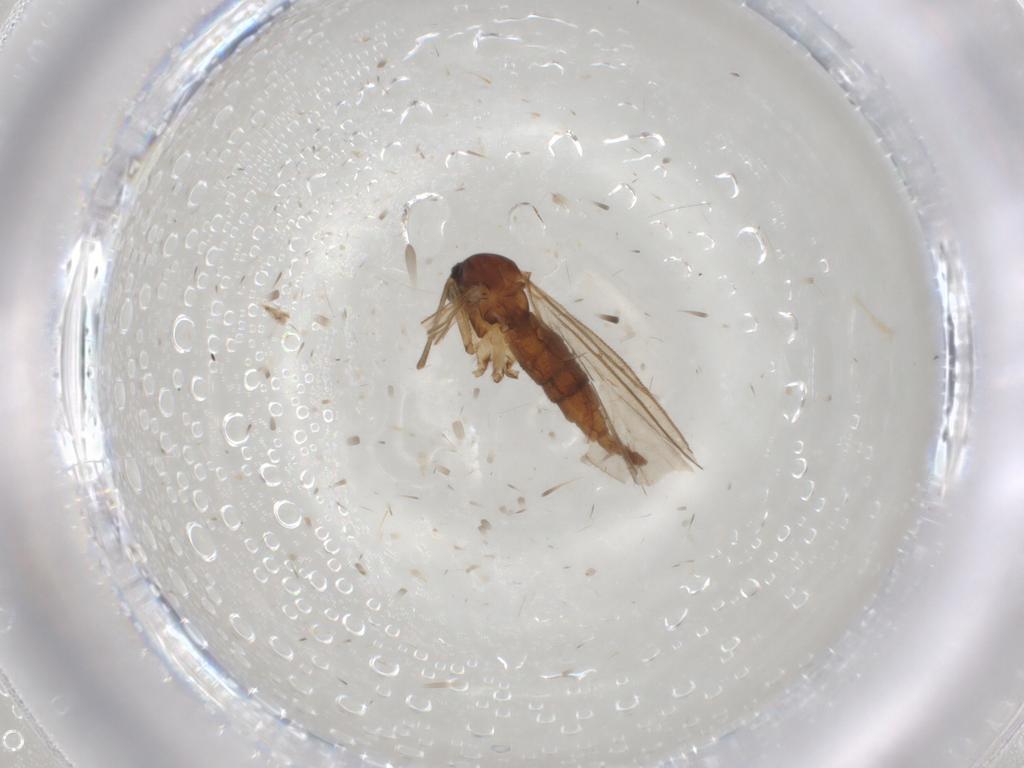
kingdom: Animalia
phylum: Arthropoda
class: Insecta
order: Diptera
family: Sciaridae
